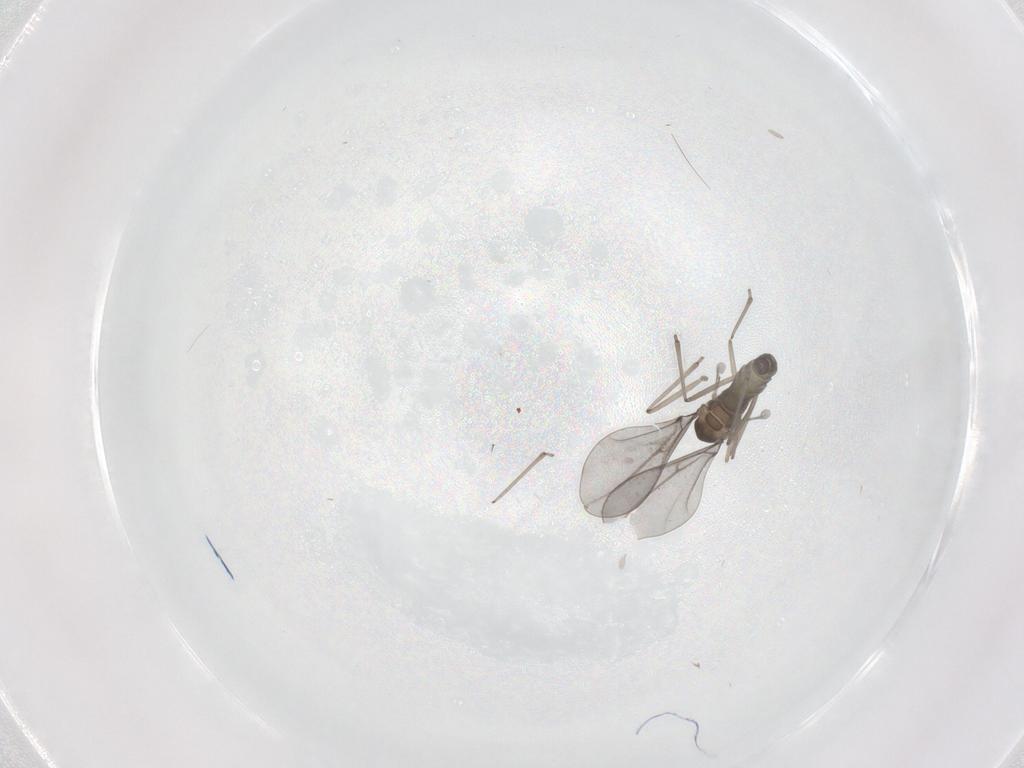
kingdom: Animalia
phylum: Arthropoda
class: Insecta
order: Diptera
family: Cecidomyiidae
